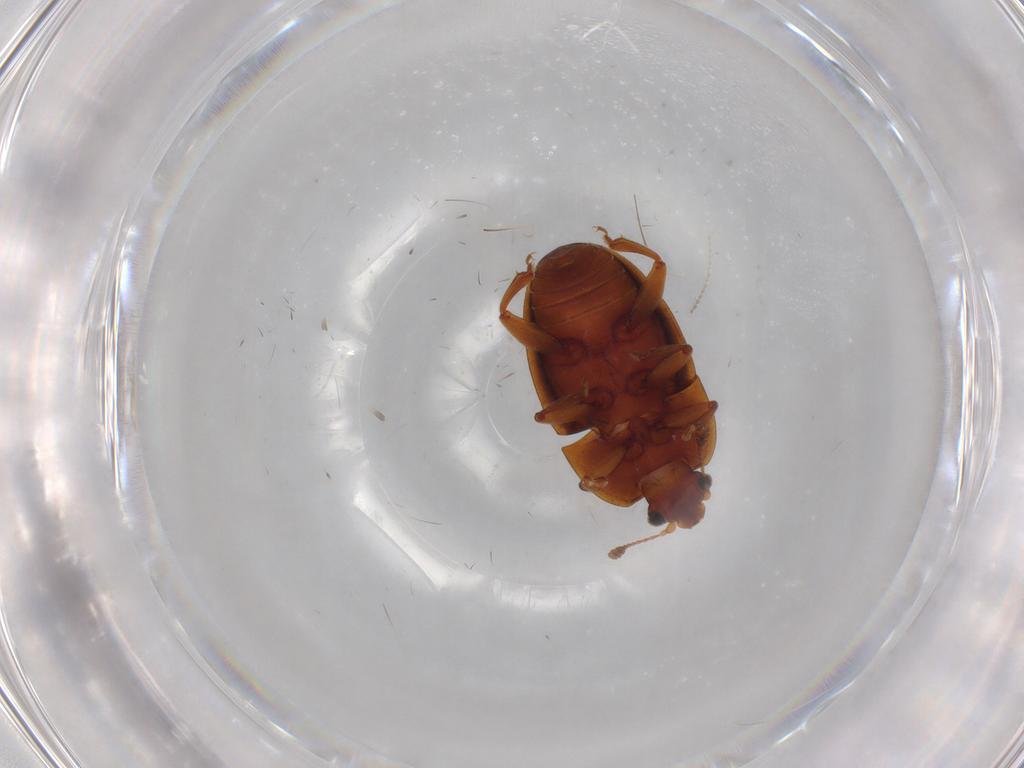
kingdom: Animalia
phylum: Arthropoda
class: Insecta
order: Coleoptera
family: Nitidulidae
